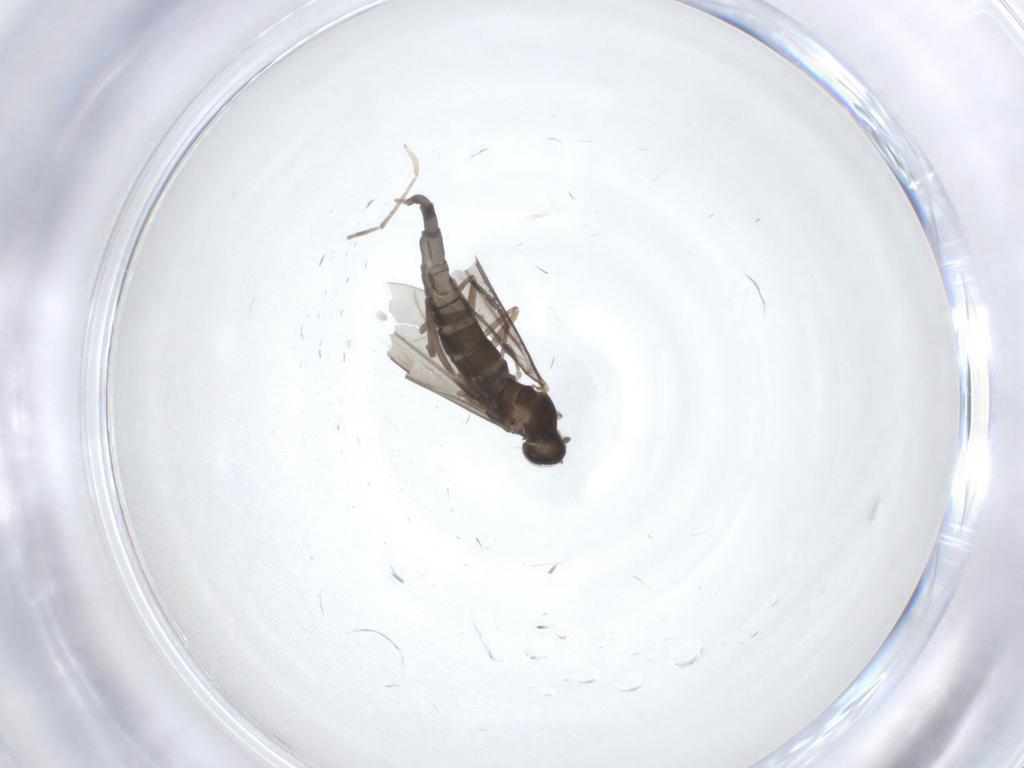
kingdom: Animalia
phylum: Arthropoda
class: Insecta
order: Diptera
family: Cecidomyiidae
